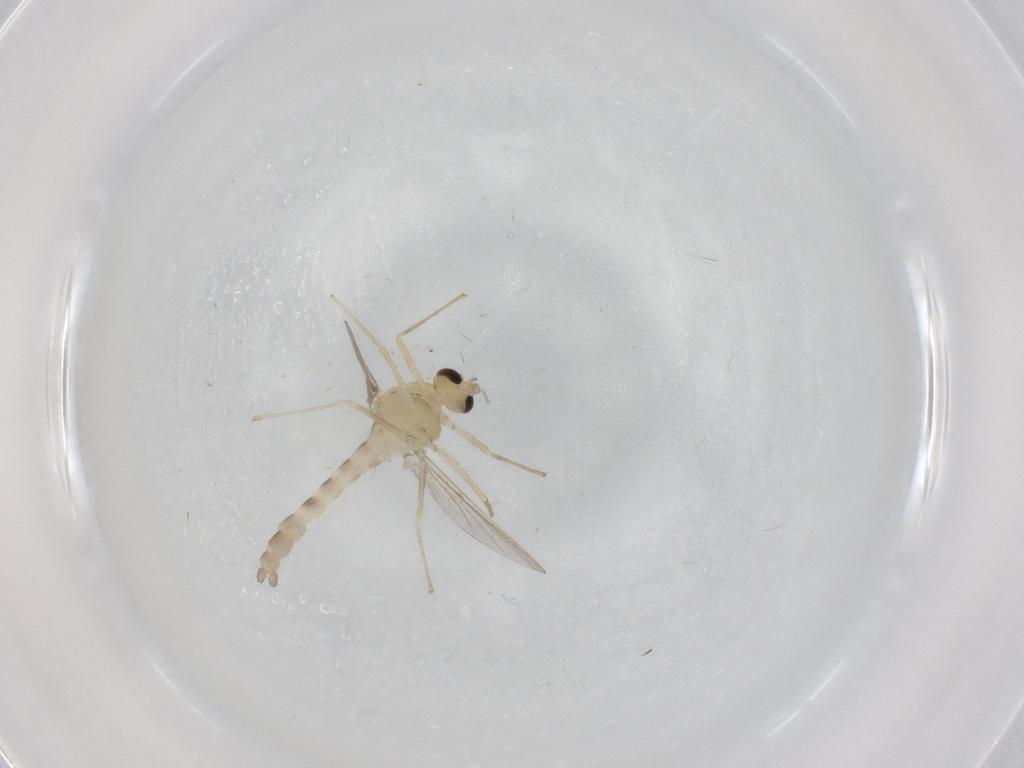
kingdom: Animalia
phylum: Arthropoda
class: Insecta
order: Diptera
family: Chironomidae
